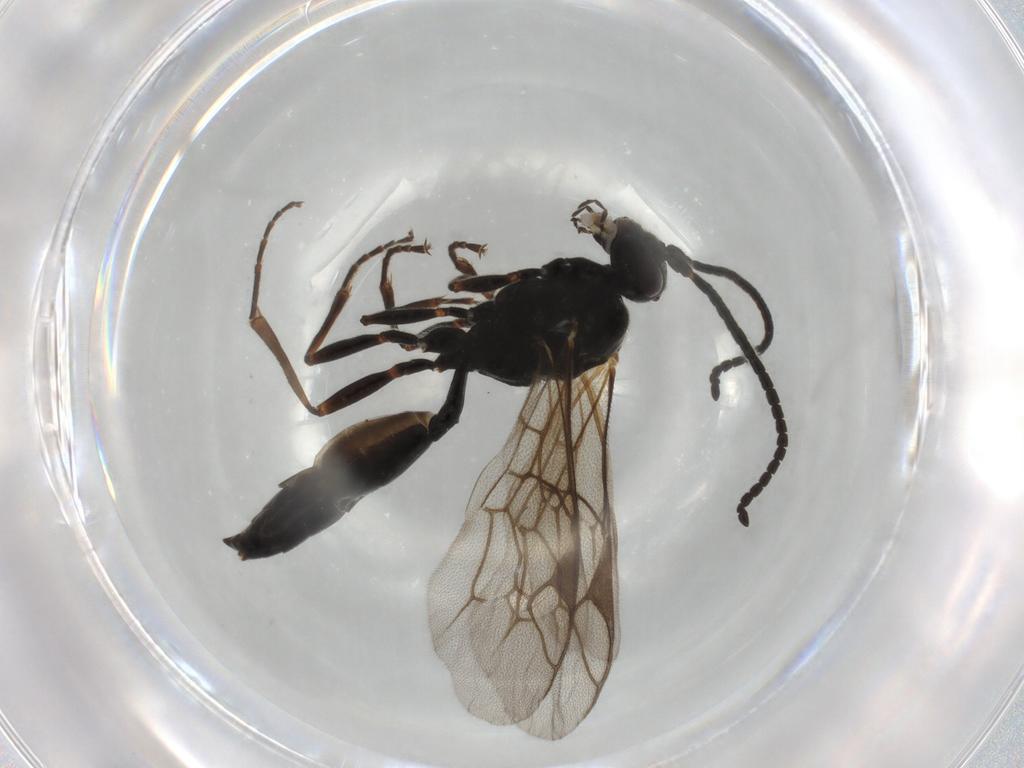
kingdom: Animalia
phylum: Arthropoda
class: Insecta
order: Hymenoptera
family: Ichneumonidae
